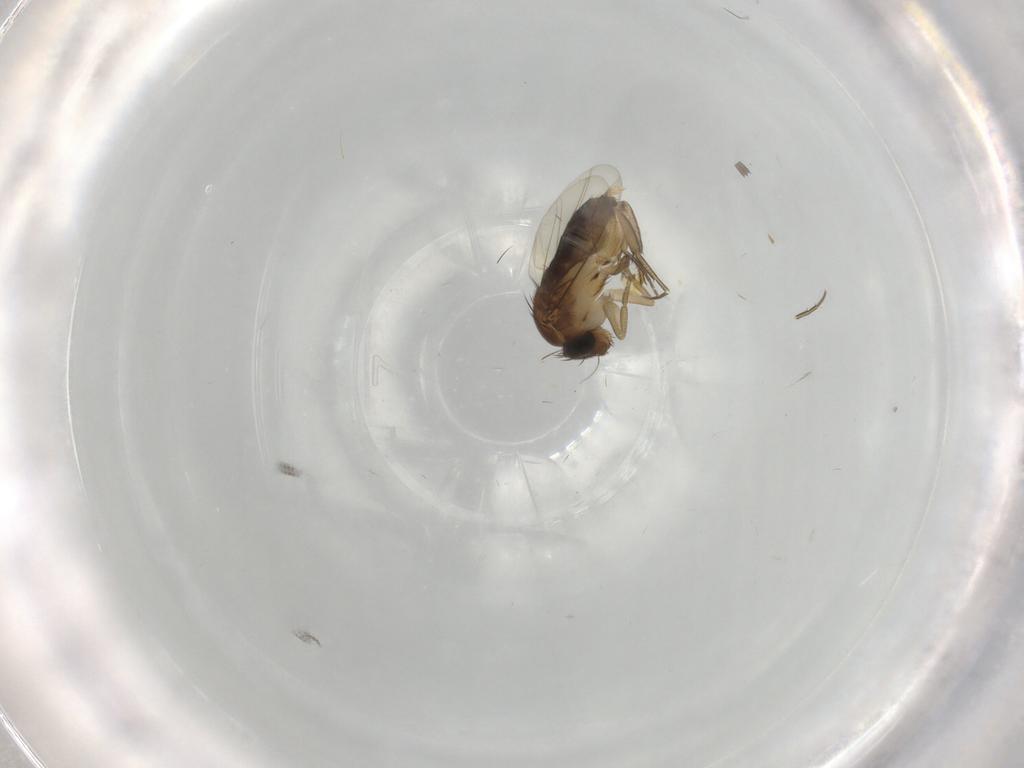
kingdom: Animalia
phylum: Arthropoda
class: Insecta
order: Diptera
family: Phoridae
